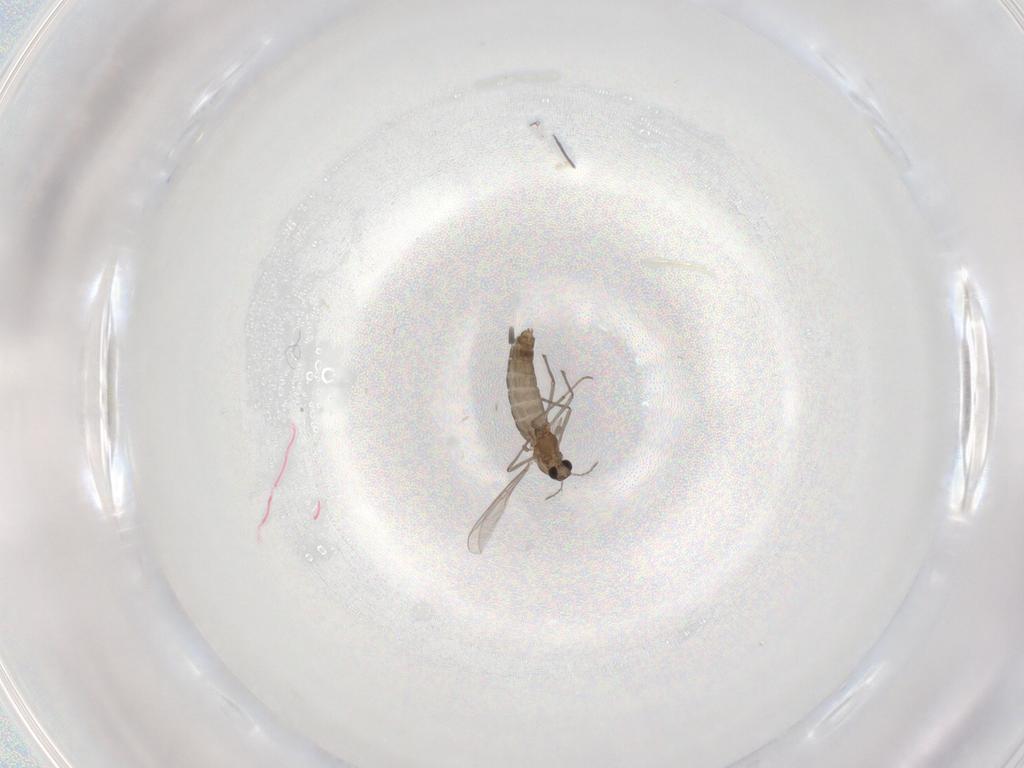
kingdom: Animalia
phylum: Arthropoda
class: Insecta
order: Diptera
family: Chironomidae
